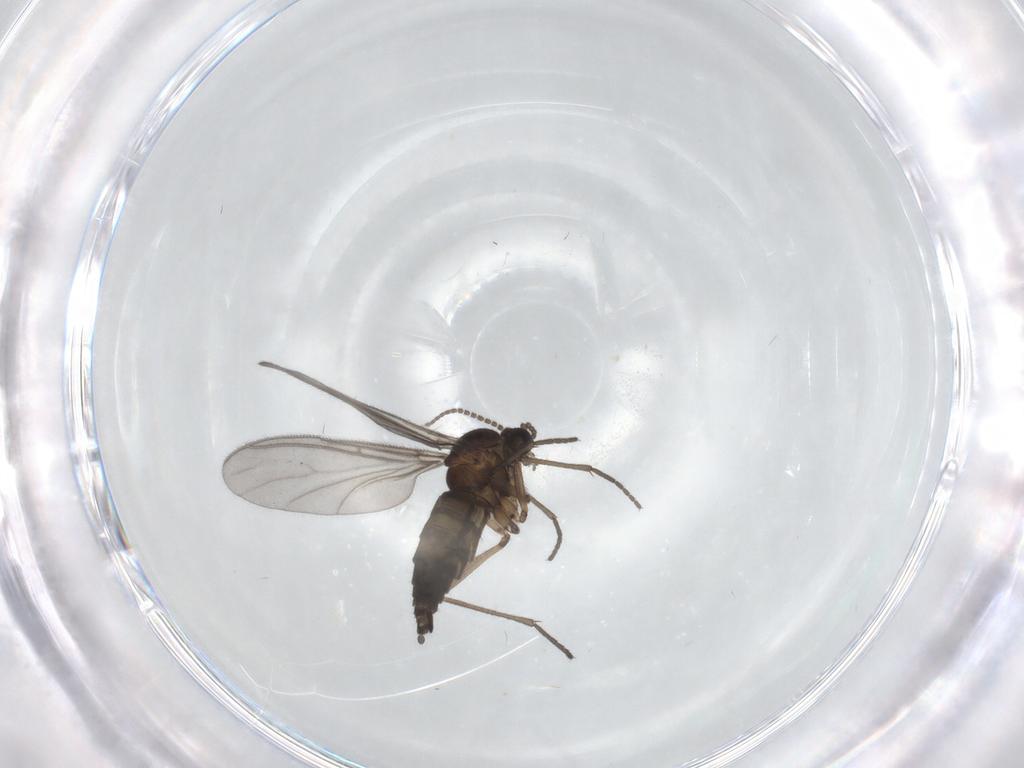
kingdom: Animalia
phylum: Arthropoda
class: Insecta
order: Diptera
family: Sciaridae
